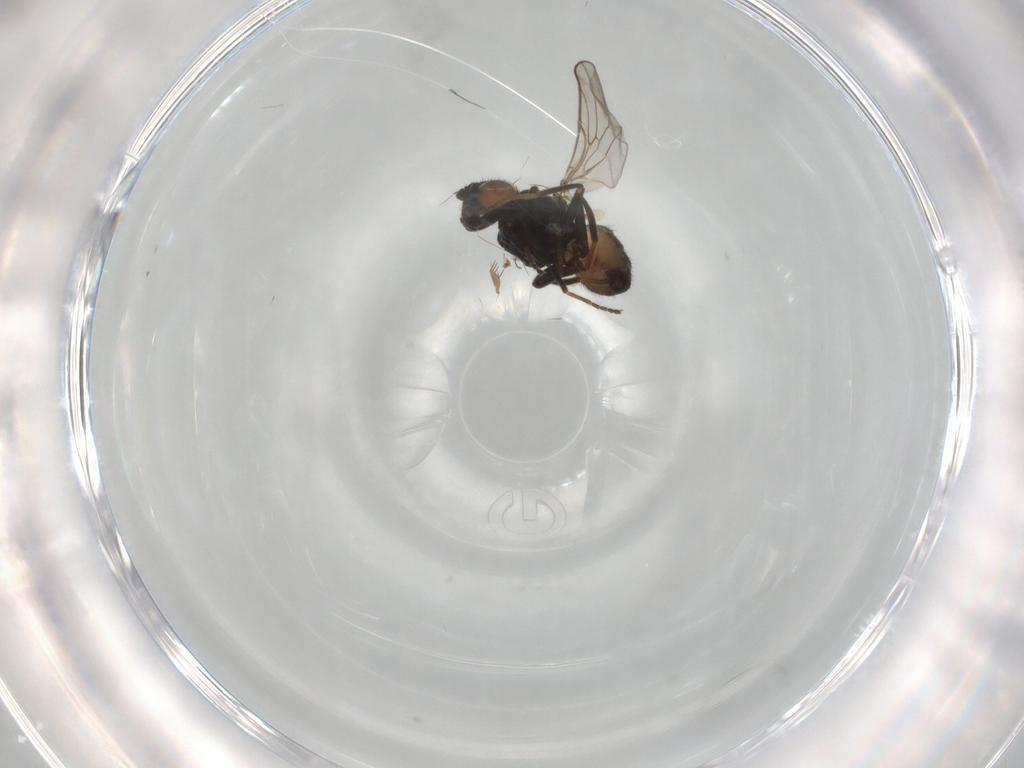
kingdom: Animalia
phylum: Arthropoda
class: Insecta
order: Diptera
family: Chloropidae
